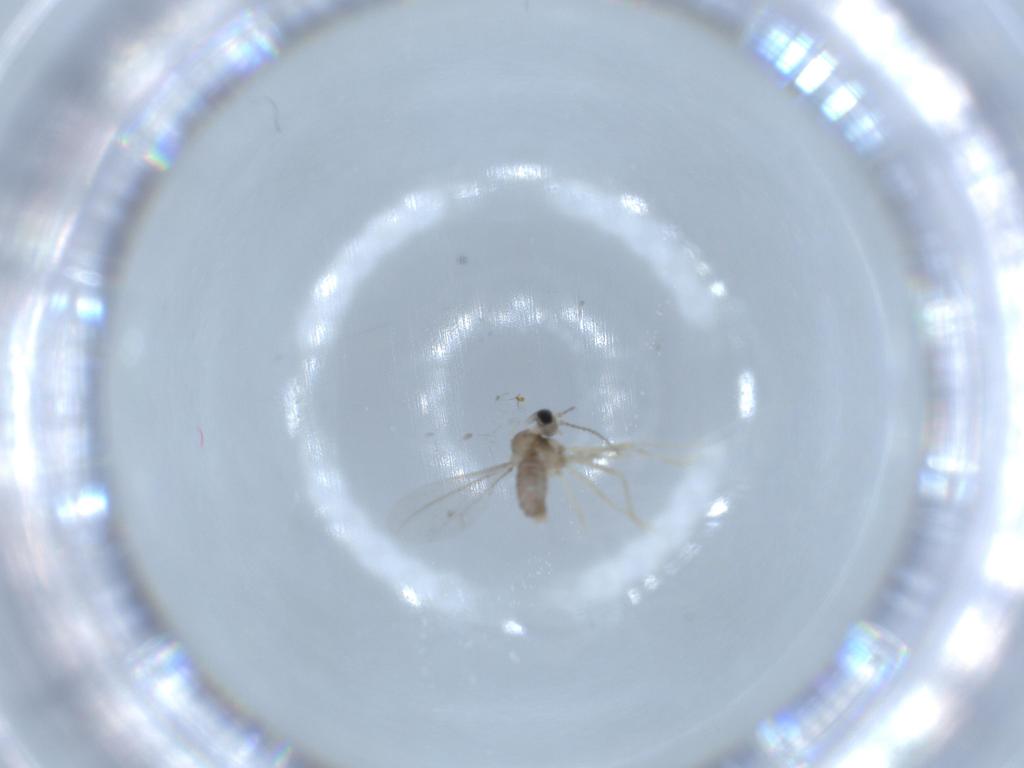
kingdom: Animalia
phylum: Arthropoda
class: Insecta
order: Diptera
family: Cecidomyiidae
